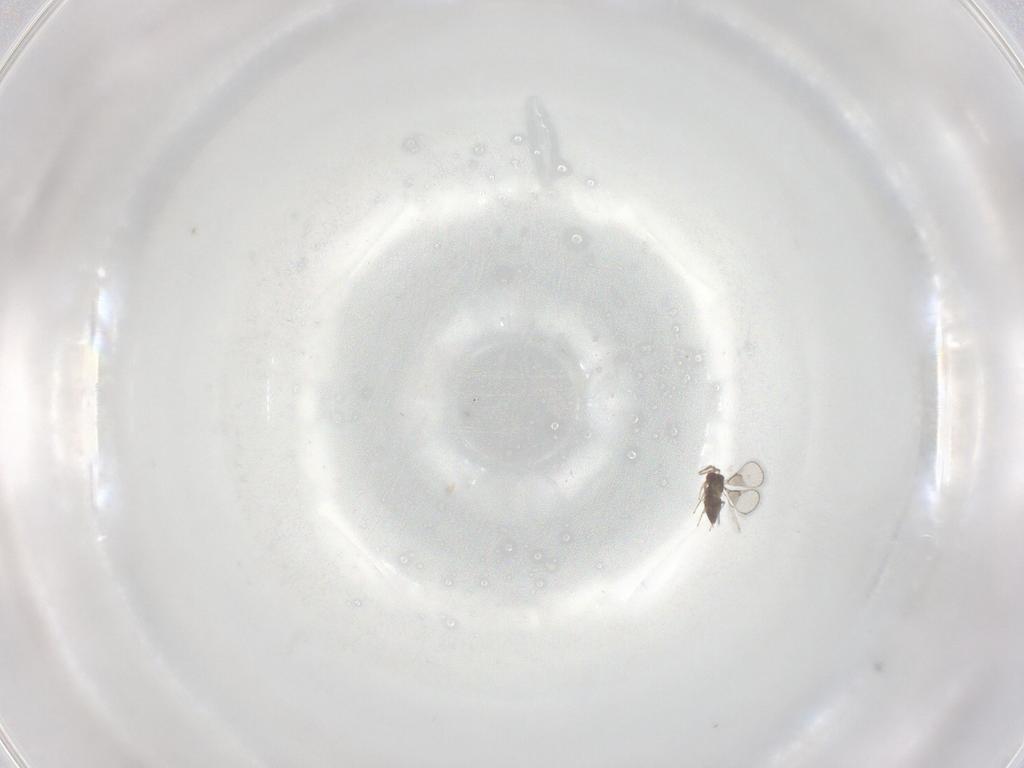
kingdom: Animalia
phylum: Arthropoda
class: Insecta
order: Hymenoptera
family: Trichogrammatidae
